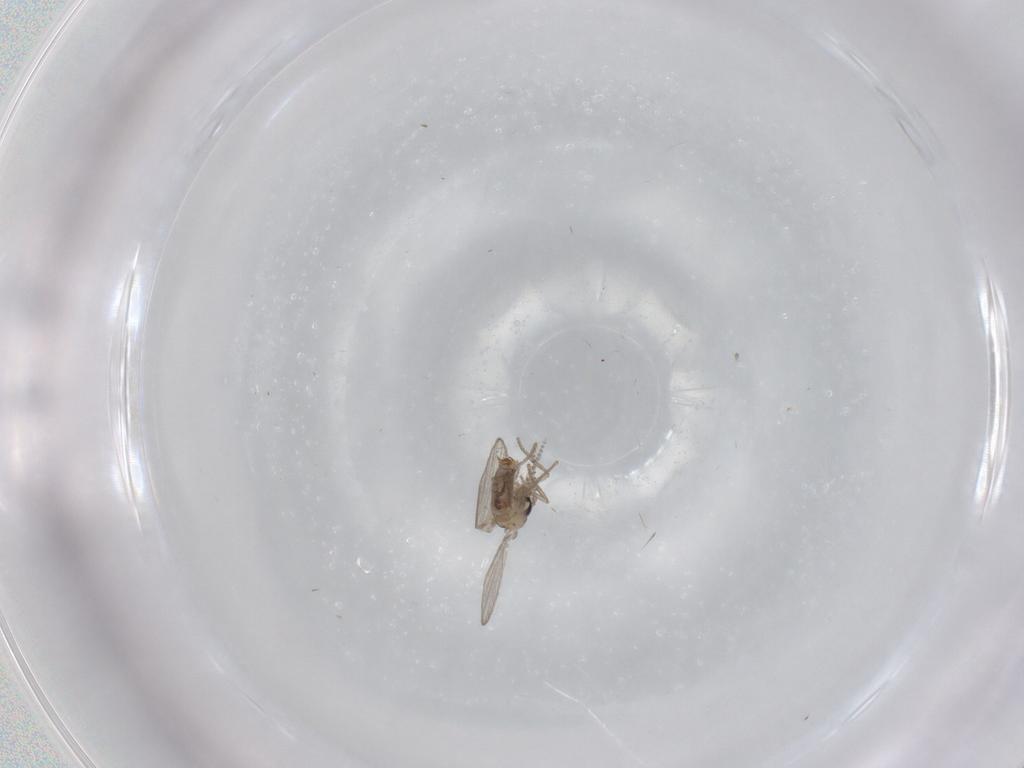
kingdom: Animalia
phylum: Arthropoda
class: Insecta
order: Diptera
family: Psychodidae
